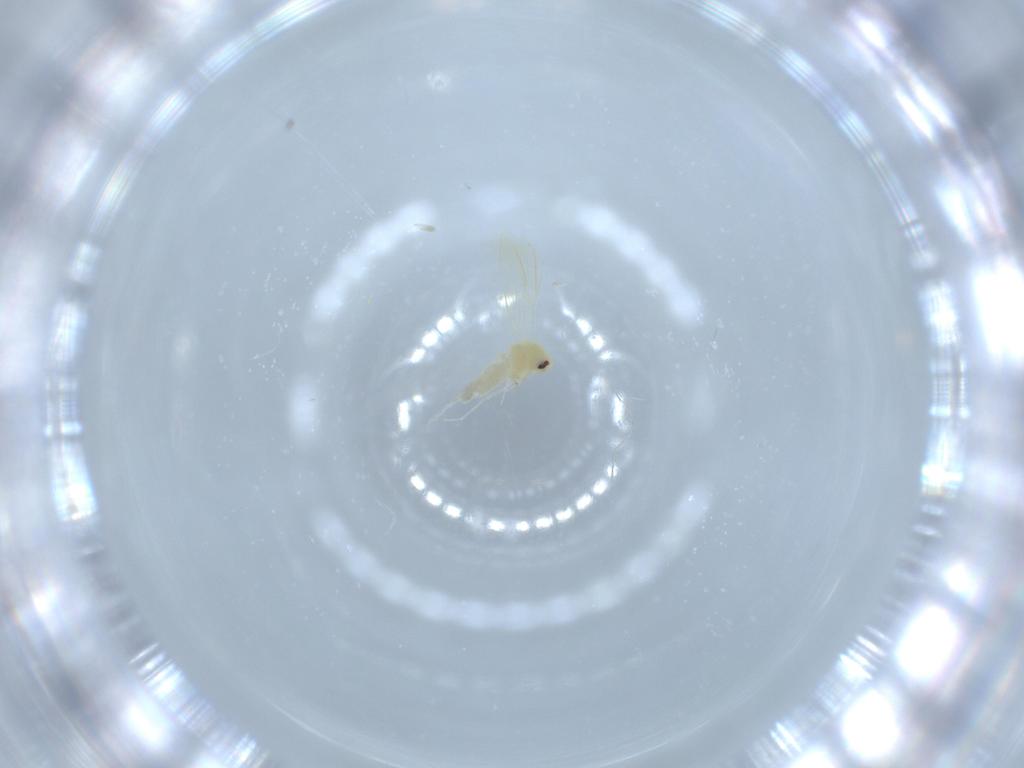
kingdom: Animalia
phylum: Arthropoda
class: Insecta
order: Hemiptera
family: Aleyrodidae
